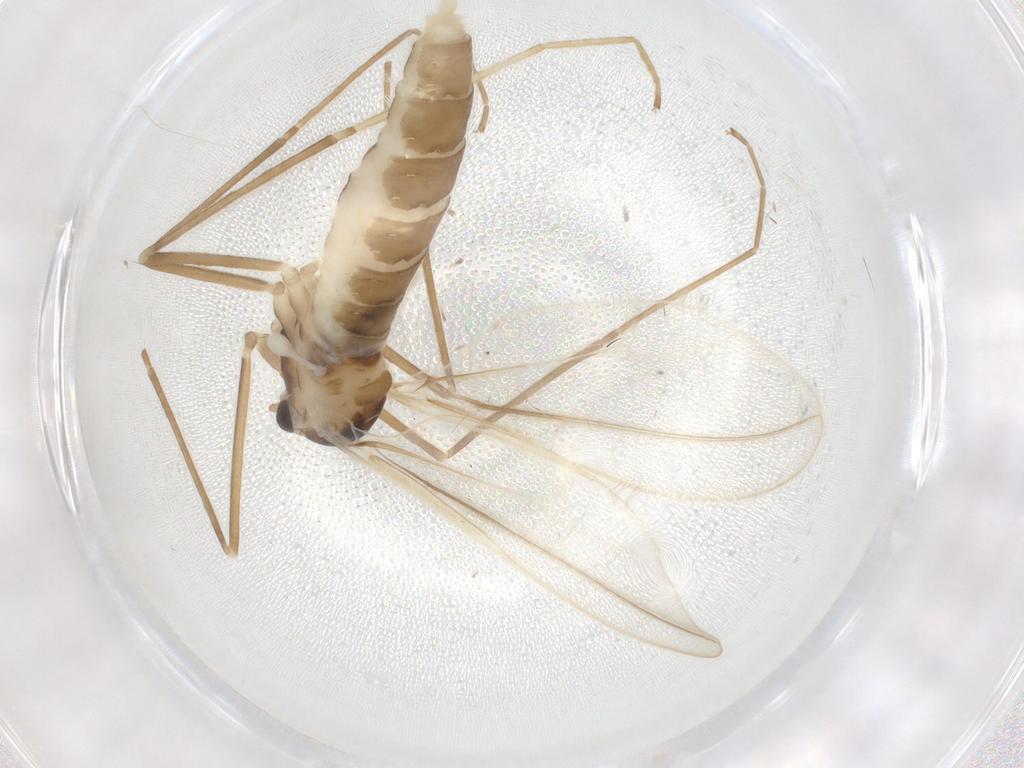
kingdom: Animalia
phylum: Arthropoda
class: Insecta
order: Diptera
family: Cecidomyiidae
